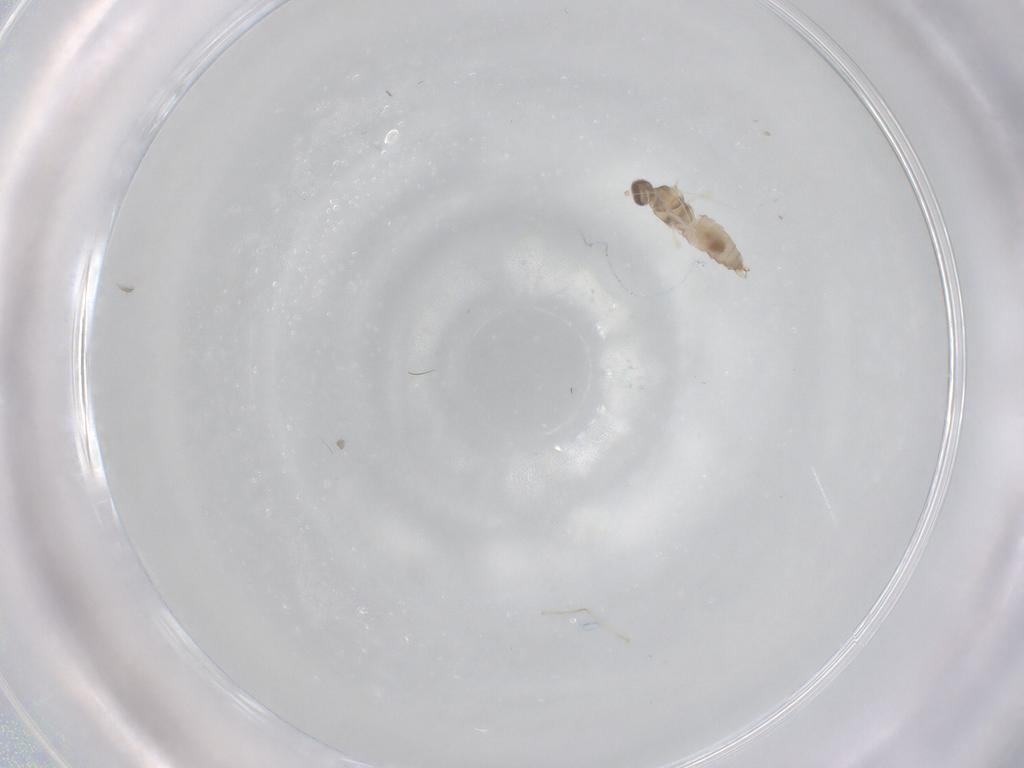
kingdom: Animalia
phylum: Arthropoda
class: Insecta
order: Diptera
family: Cecidomyiidae
